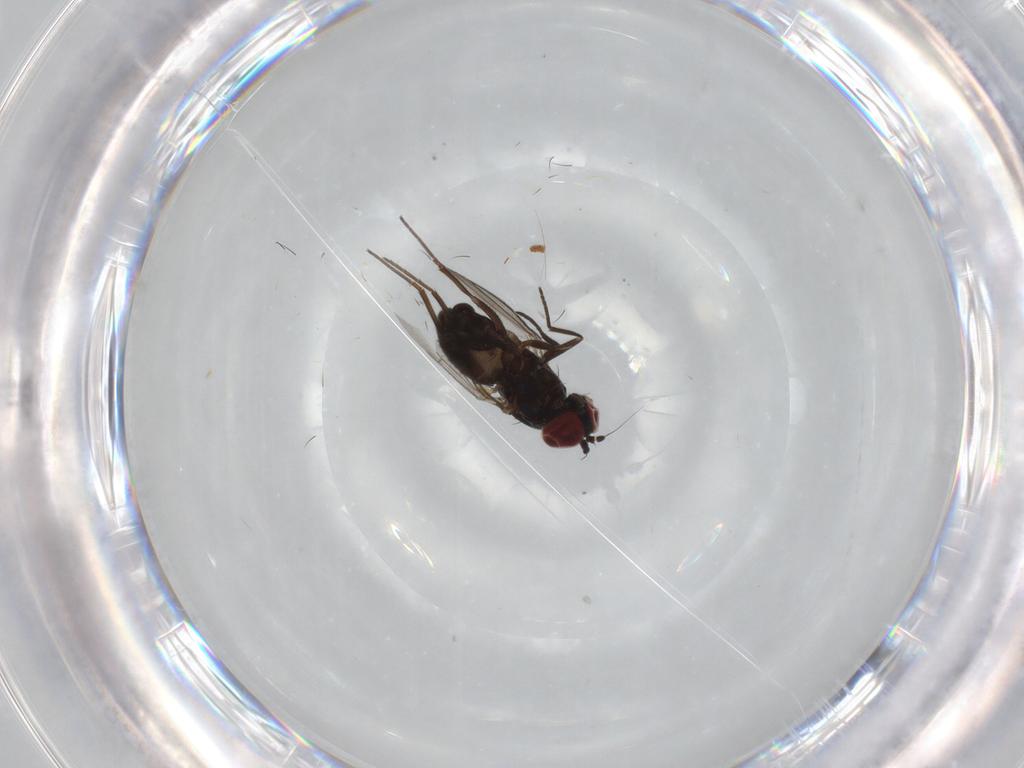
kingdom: Animalia
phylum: Arthropoda
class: Insecta
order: Diptera
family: Dolichopodidae
